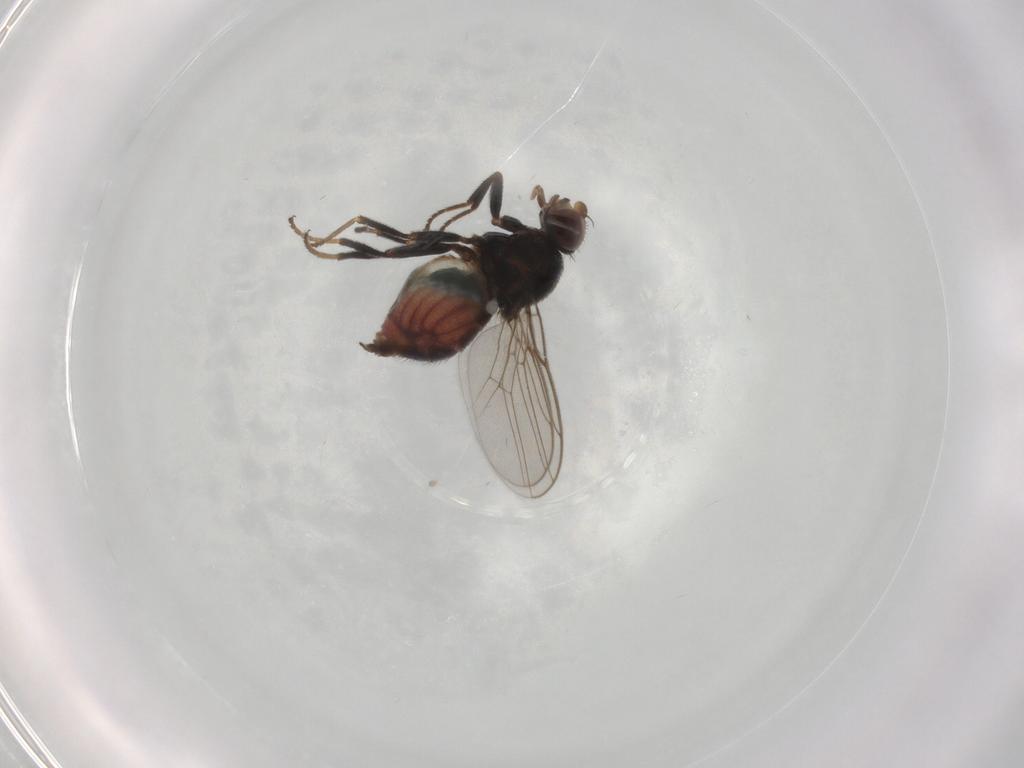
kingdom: Animalia
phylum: Arthropoda
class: Insecta
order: Diptera
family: Chloropidae
